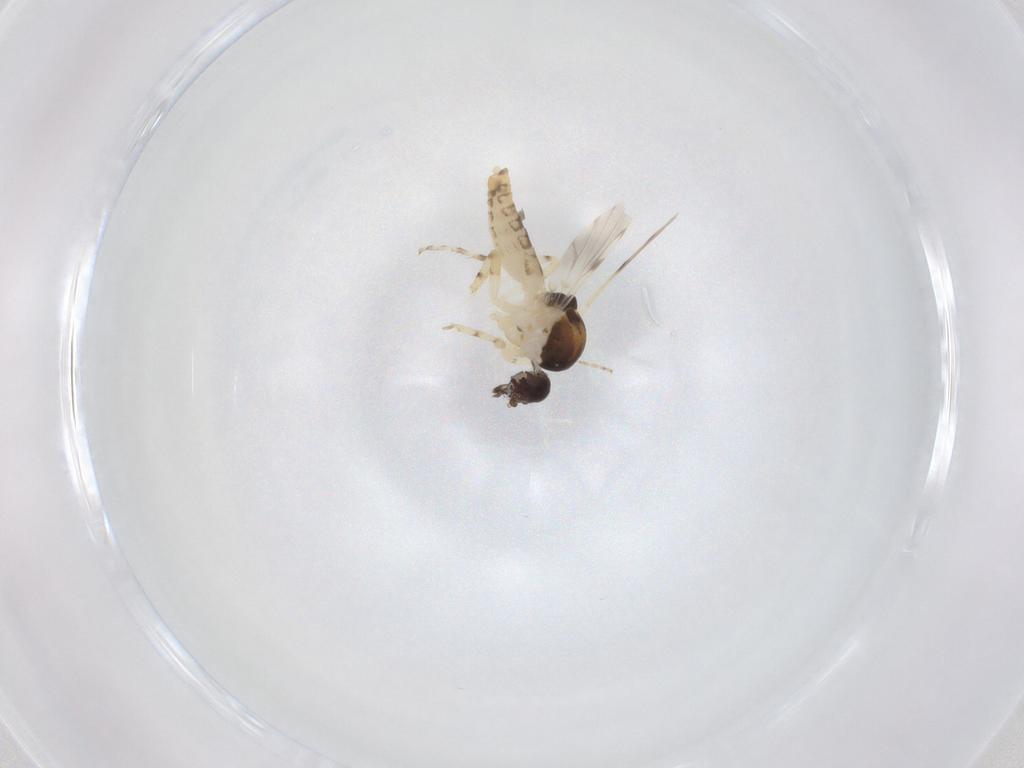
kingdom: Animalia
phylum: Arthropoda
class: Insecta
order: Diptera
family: Ceratopogonidae
